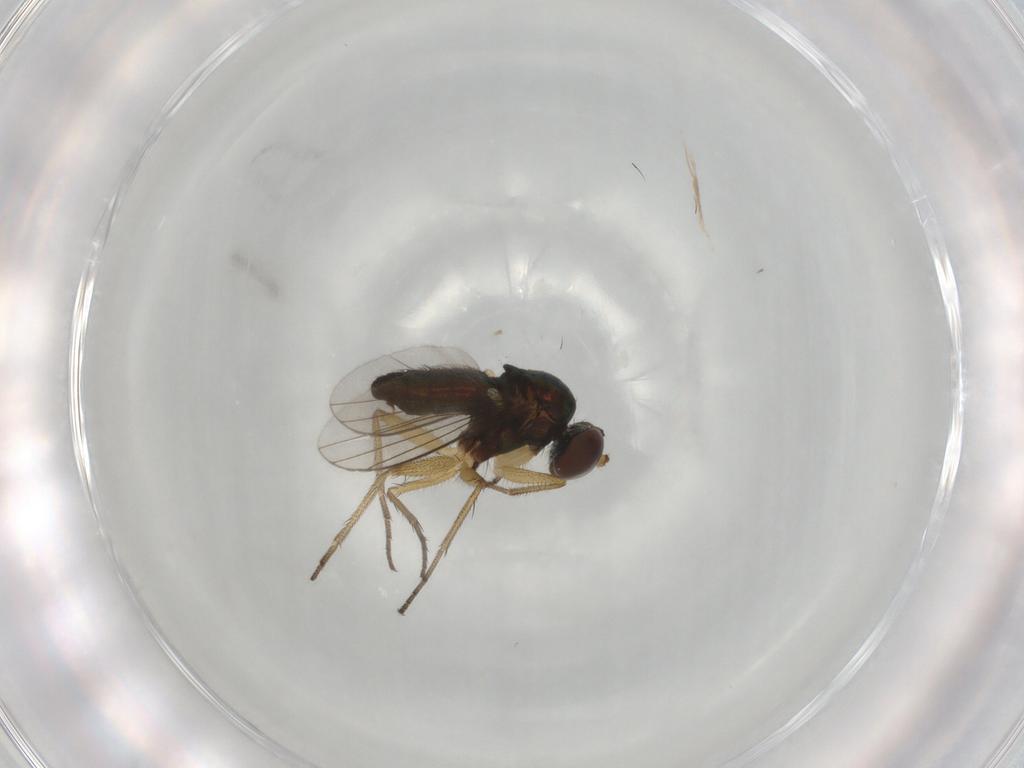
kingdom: Animalia
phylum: Arthropoda
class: Insecta
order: Diptera
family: Dolichopodidae
